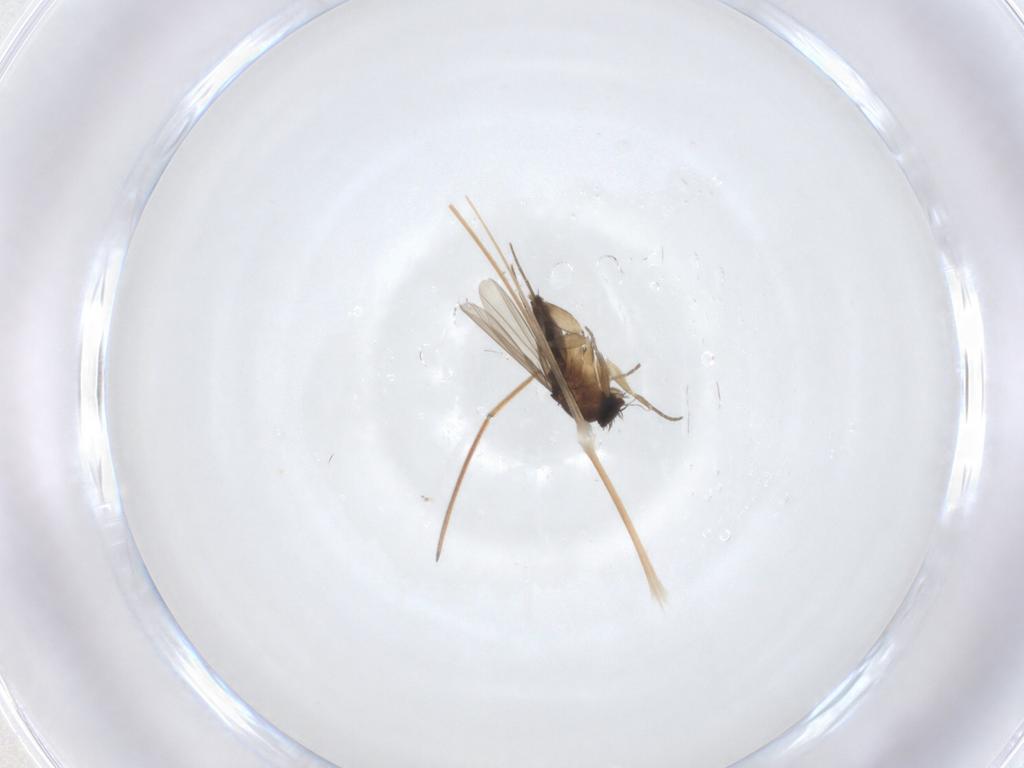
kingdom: Animalia
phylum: Arthropoda
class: Insecta
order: Diptera
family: Phoridae
